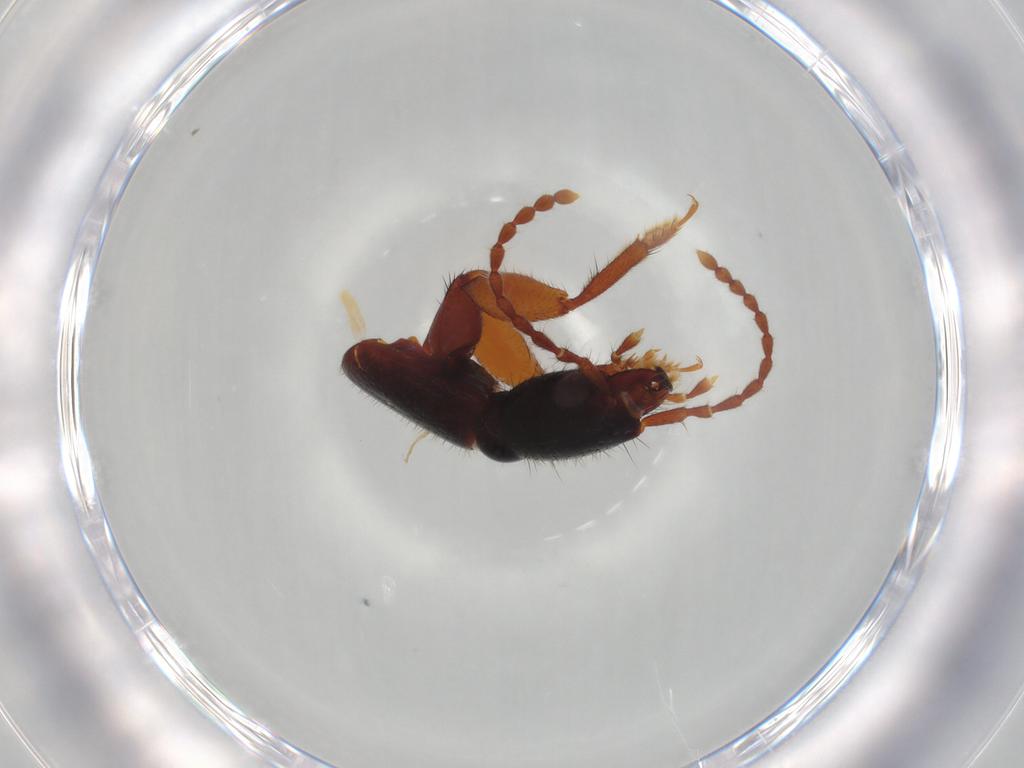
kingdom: Animalia
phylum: Arthropoda
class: Insecta
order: Coleoptera
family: Staphylinidae
